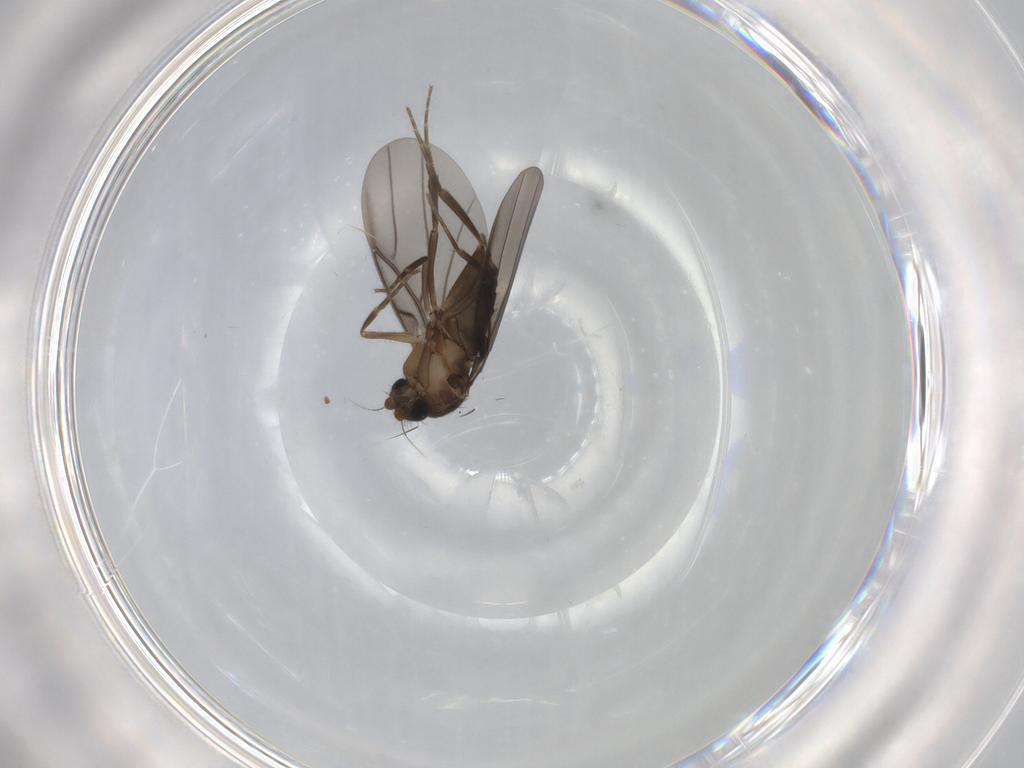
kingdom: Animalia
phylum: Arthropoda
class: Insecta
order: Diptera
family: Phoridae
